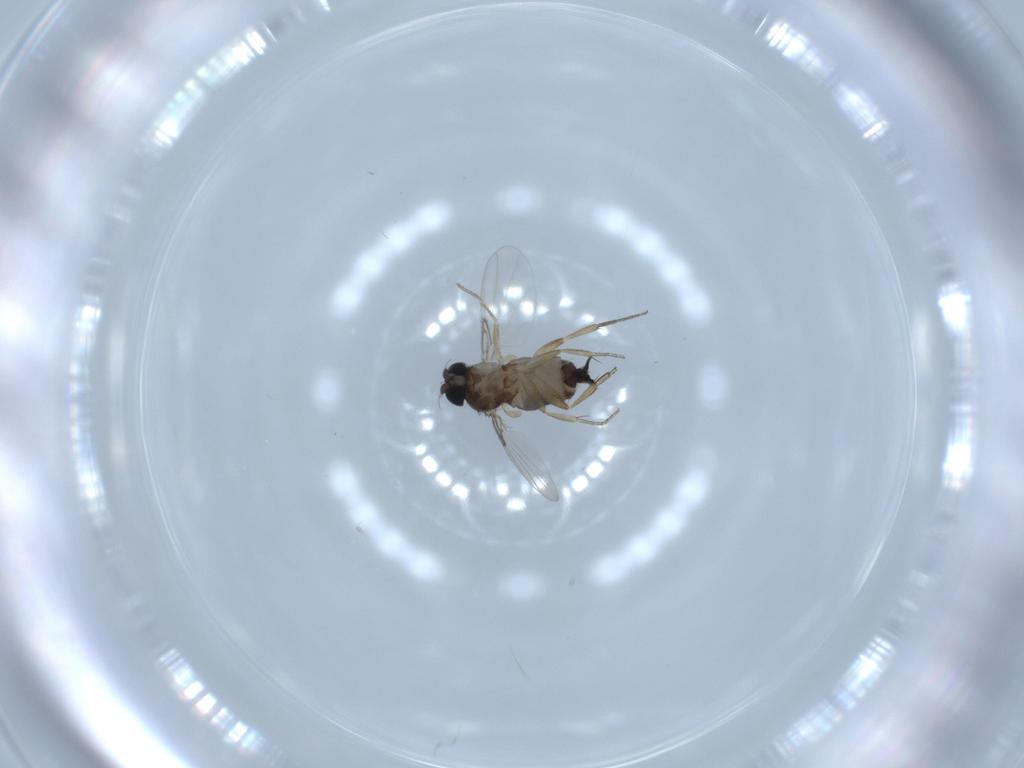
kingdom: Animalia
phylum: Arthropoda
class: Insecta
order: Diptera
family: Phoridae
